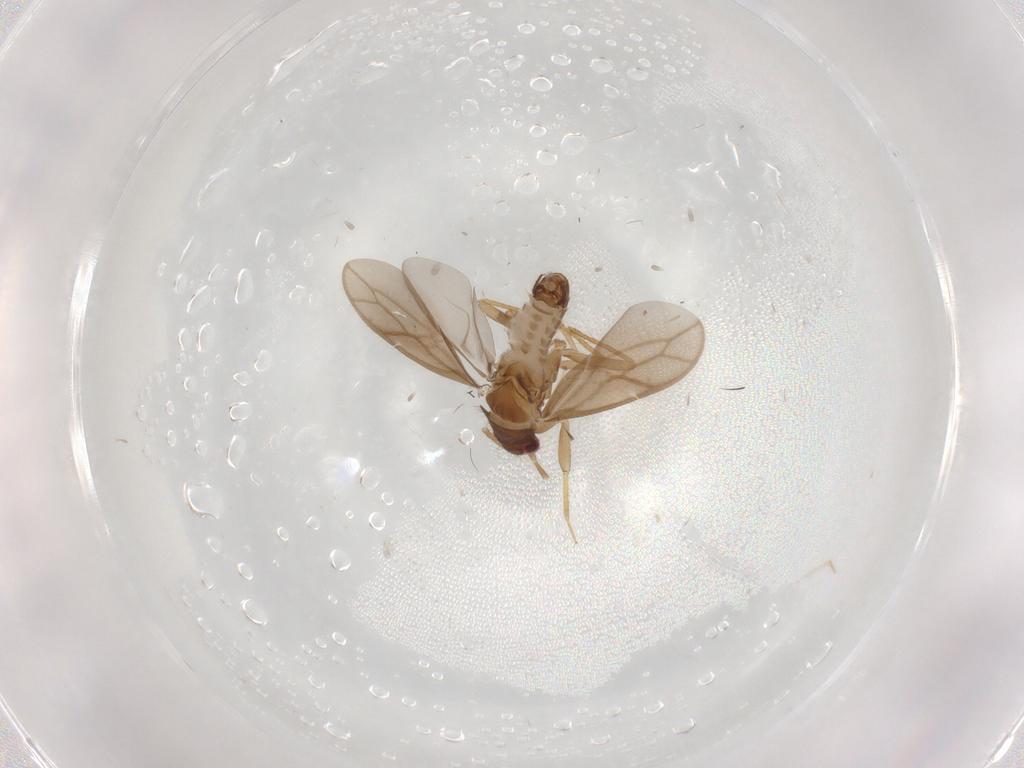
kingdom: Animalia
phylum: Arthropoda
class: Insecta
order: Hemiptera
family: Ceratocombidae
